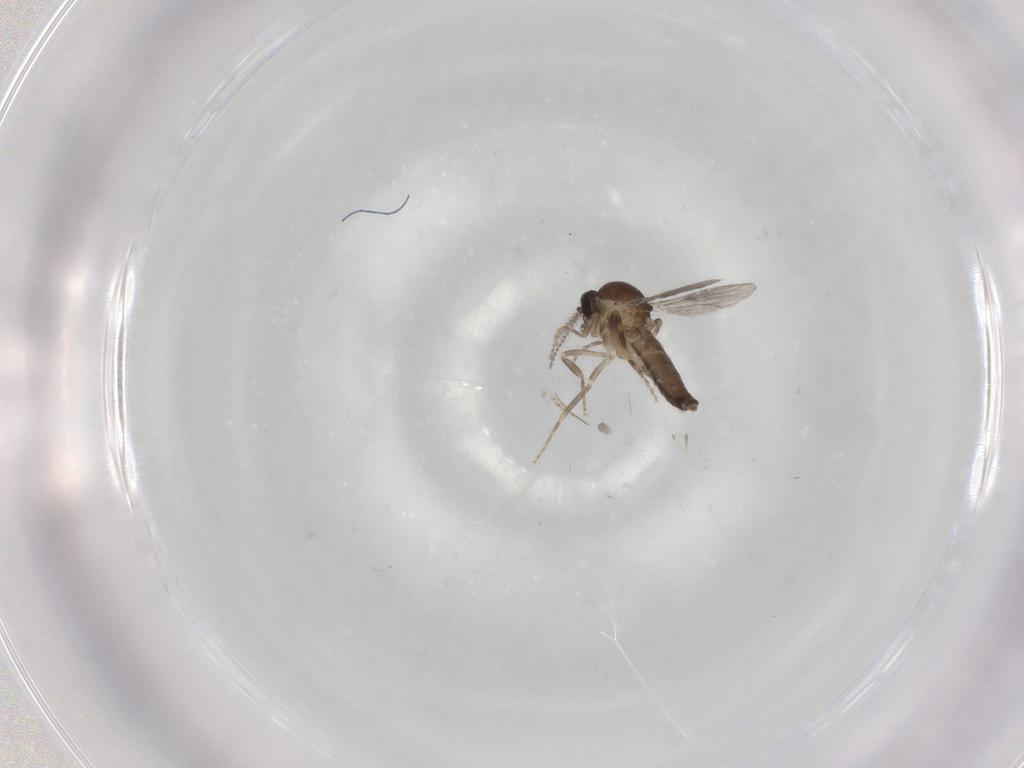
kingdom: Animalia
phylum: Arthropoda
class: Insecta
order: Diptera
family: Ceratopogonidae
